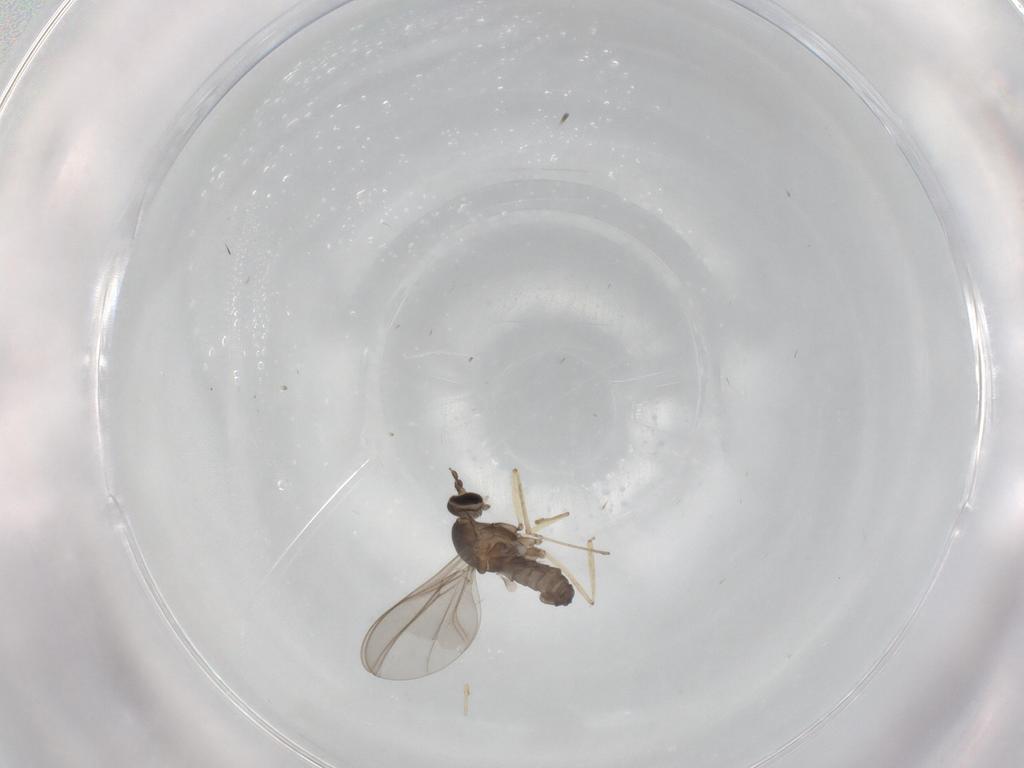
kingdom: Animalia
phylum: Arthropoda
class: Insecta
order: Diptera
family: Cecidomyiidae
